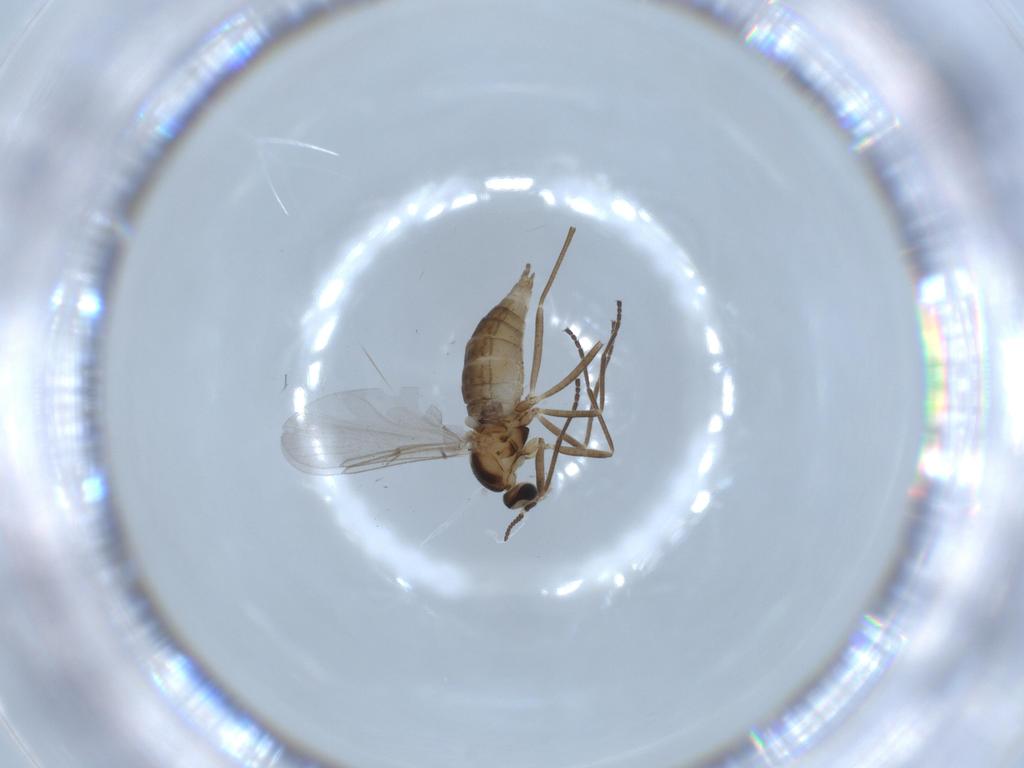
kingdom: Animalia
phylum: Arthropoda
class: Insecta
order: Diptera
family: Cecidomyiidae
